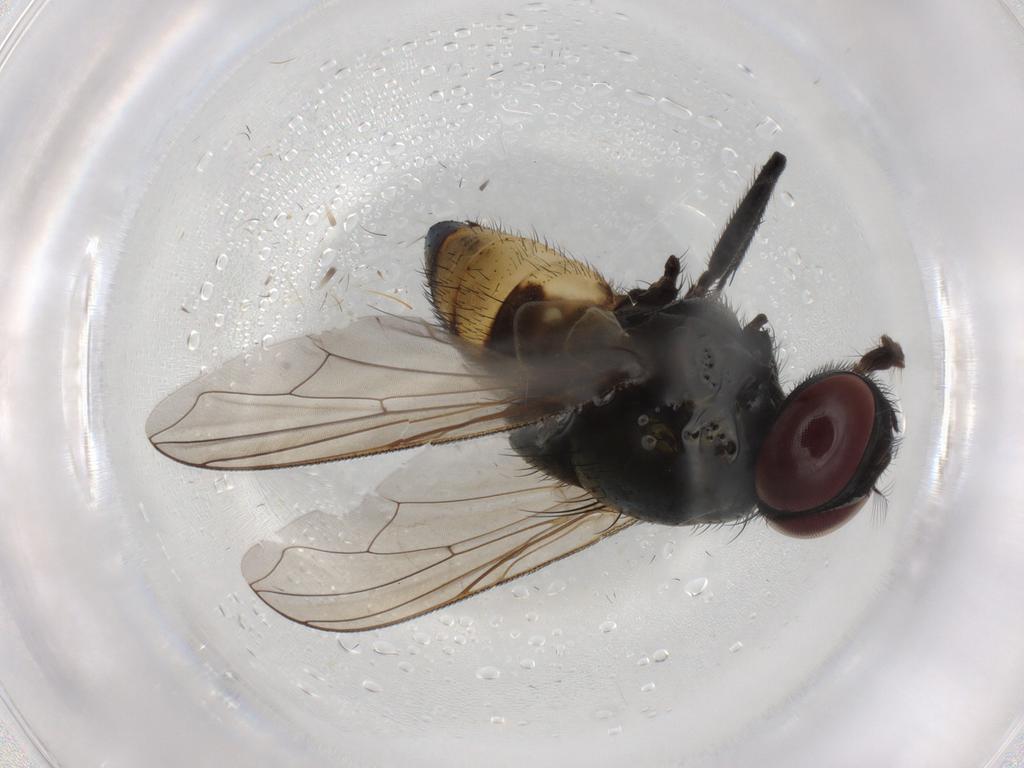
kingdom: Animalia
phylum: Arthropoda
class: Insecta
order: Diptera
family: Muscidae
